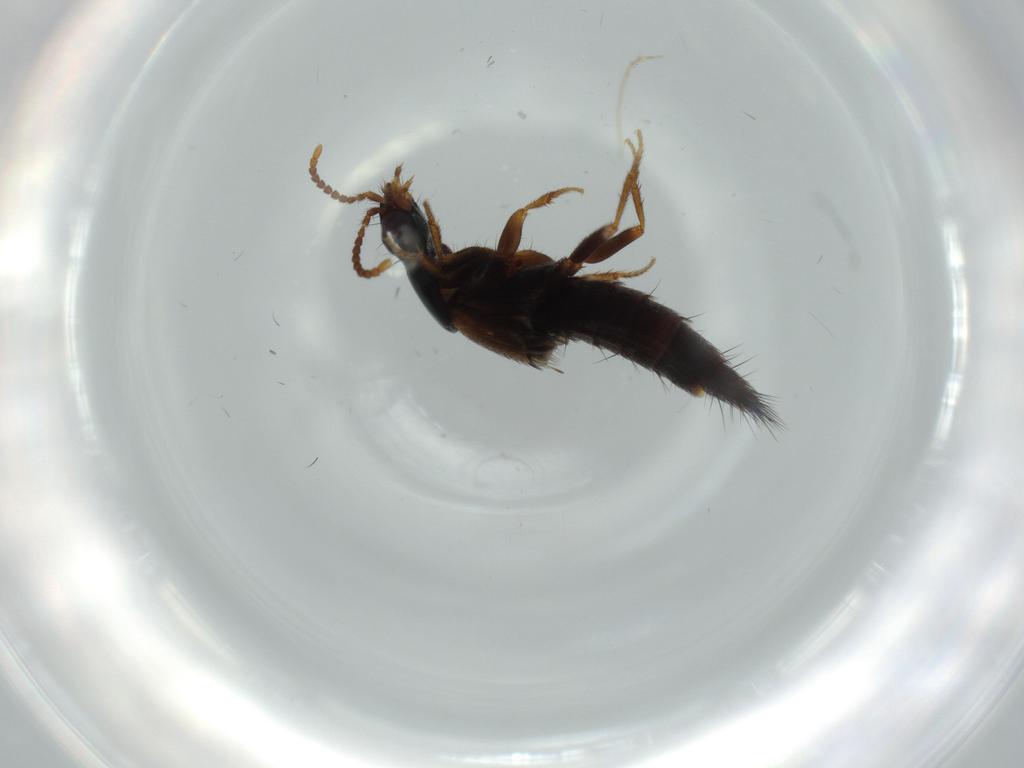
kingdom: Animalia
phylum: Arthropoda
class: Insecta
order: Coleoptera
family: Staphylinidae
